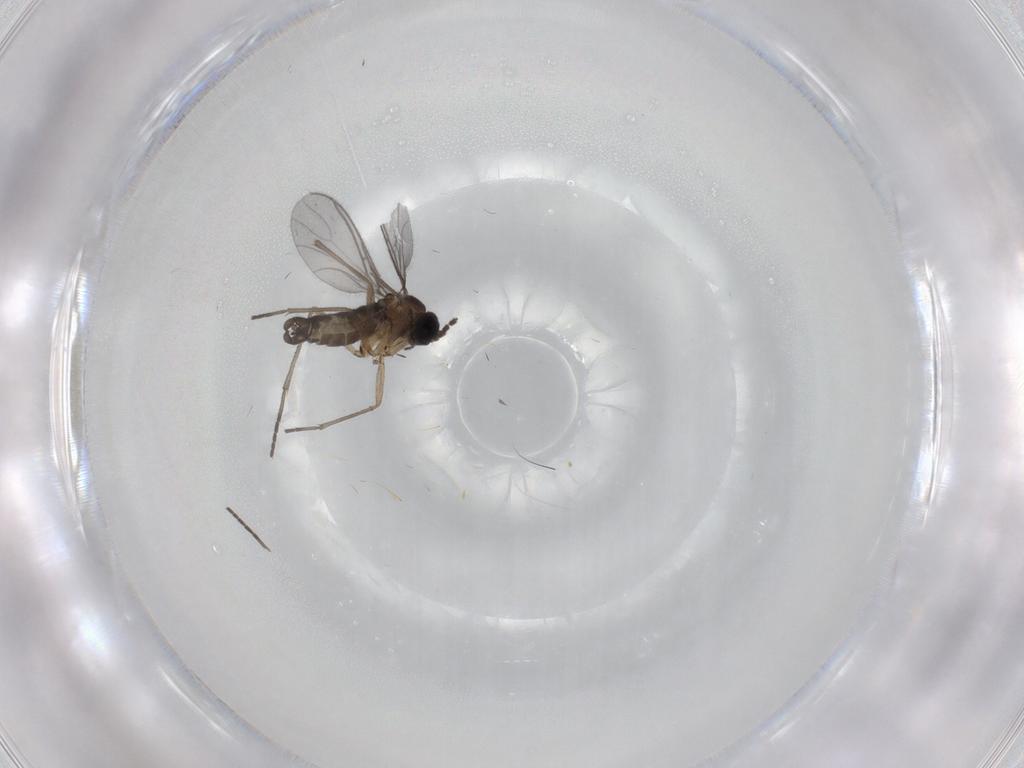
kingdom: Animalia
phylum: Arthropoda
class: Insecta
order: Diptera
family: Sciaridae
